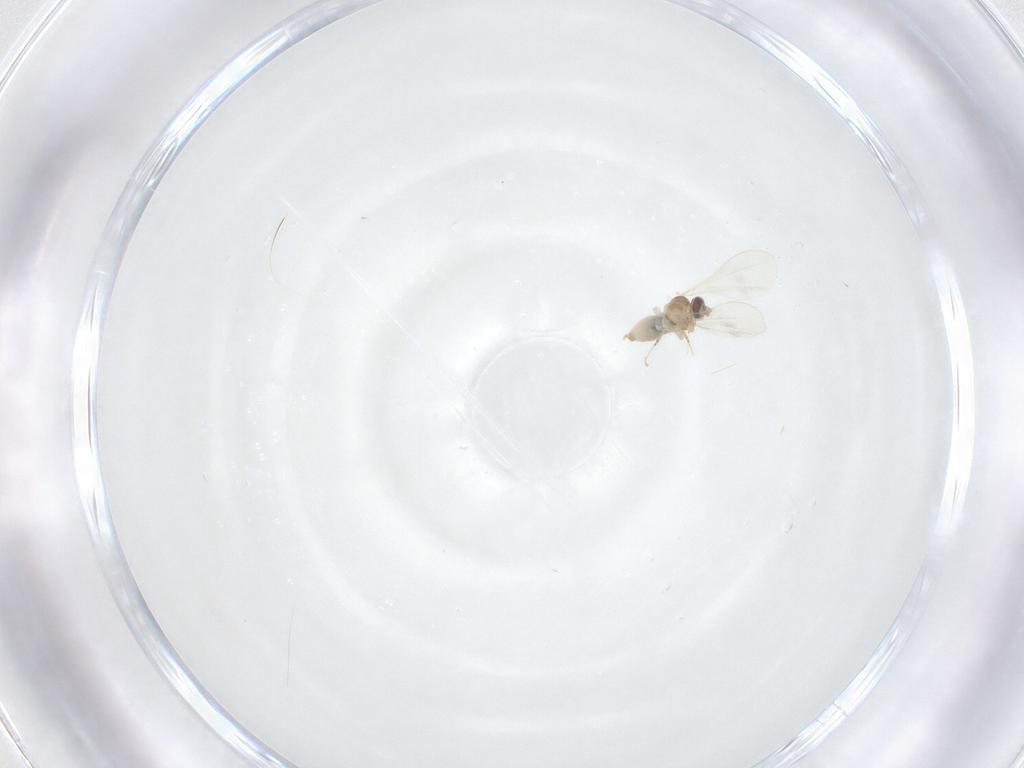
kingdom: Animalia
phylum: Arthropoda
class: Insecta
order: Diptera
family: Cecidomyiidae
